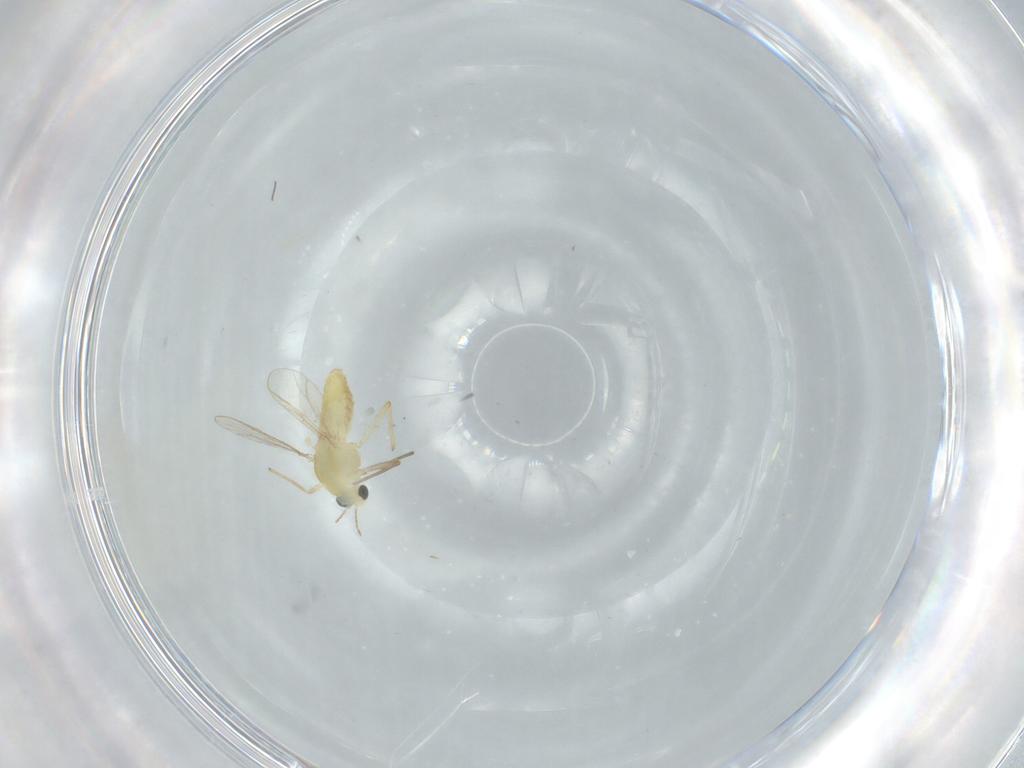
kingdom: Animalia
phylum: Arthropoda
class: Insecta
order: Diptera
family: Chironomidae
